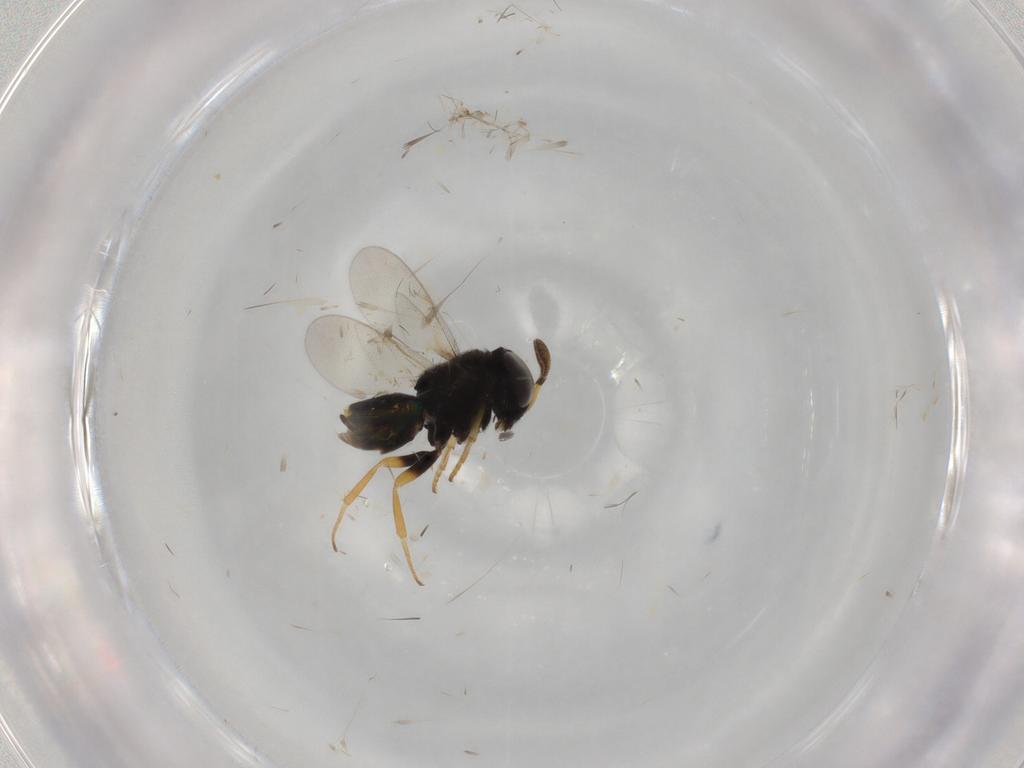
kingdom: Animalia
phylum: Arthropoda
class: Insecta
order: Hymenoptera
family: Encyrtidae
